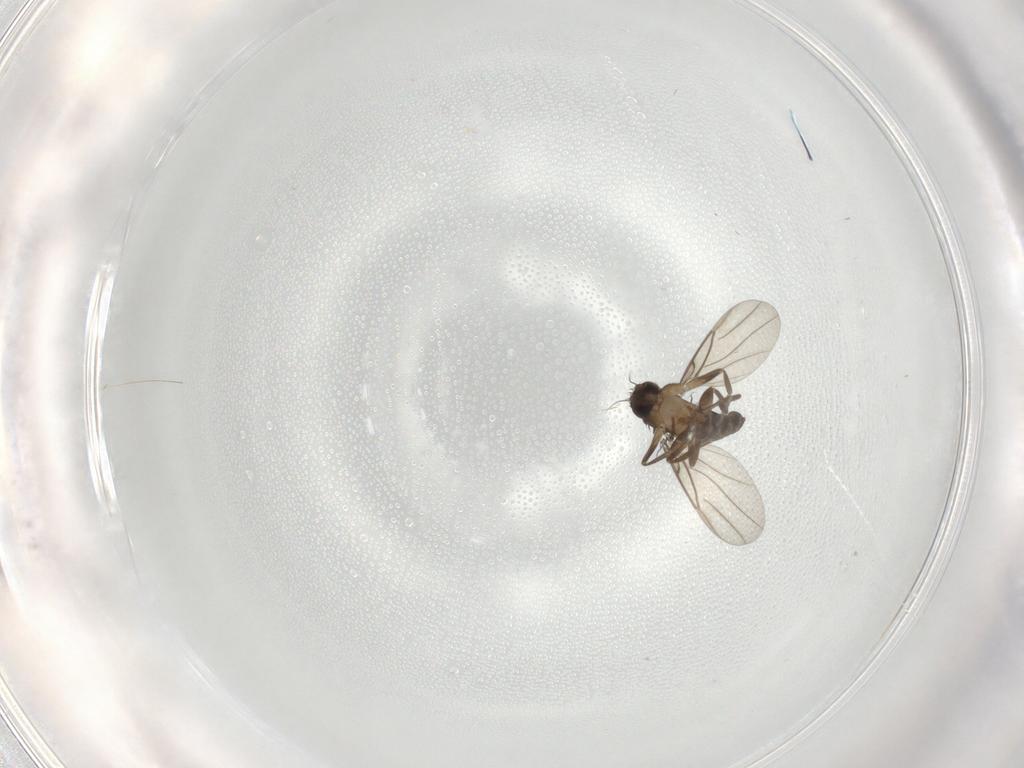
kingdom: Animalia
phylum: Arthropoda
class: Insecta
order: Diptera
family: Phoridae
